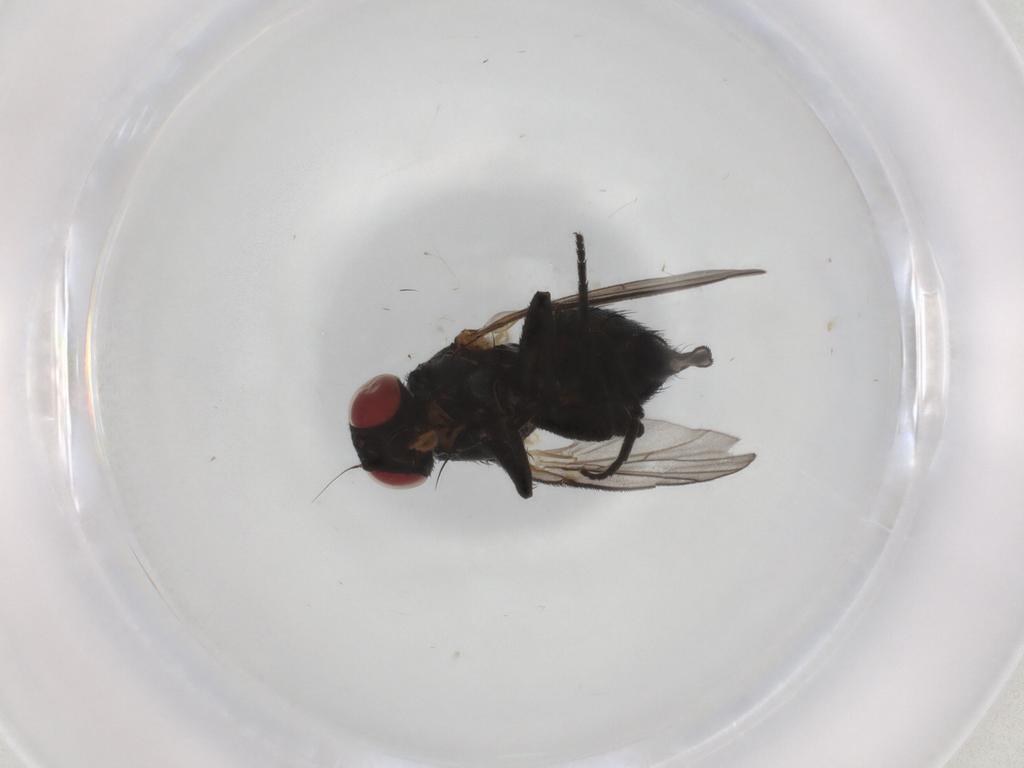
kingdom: Animalia
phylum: Arthropoda
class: Insecta
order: Diptera
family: Agromyzidae
